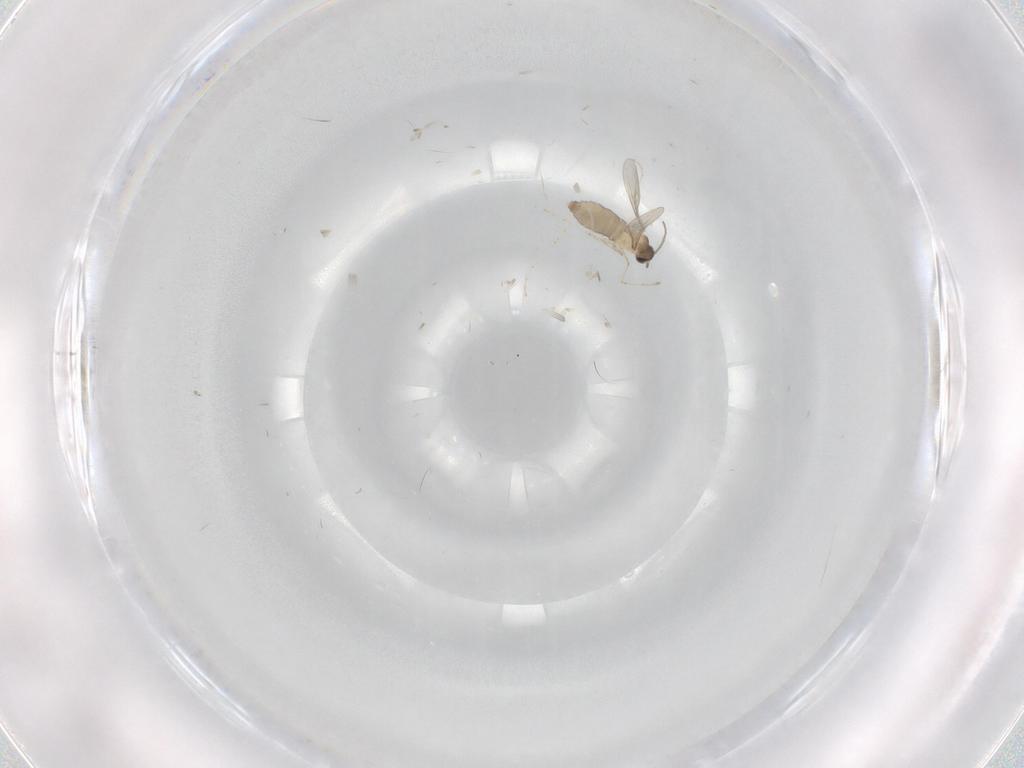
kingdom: Animalia
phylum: Arthropoda
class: Insecta
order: Diptera
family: Cecidomyiidae
